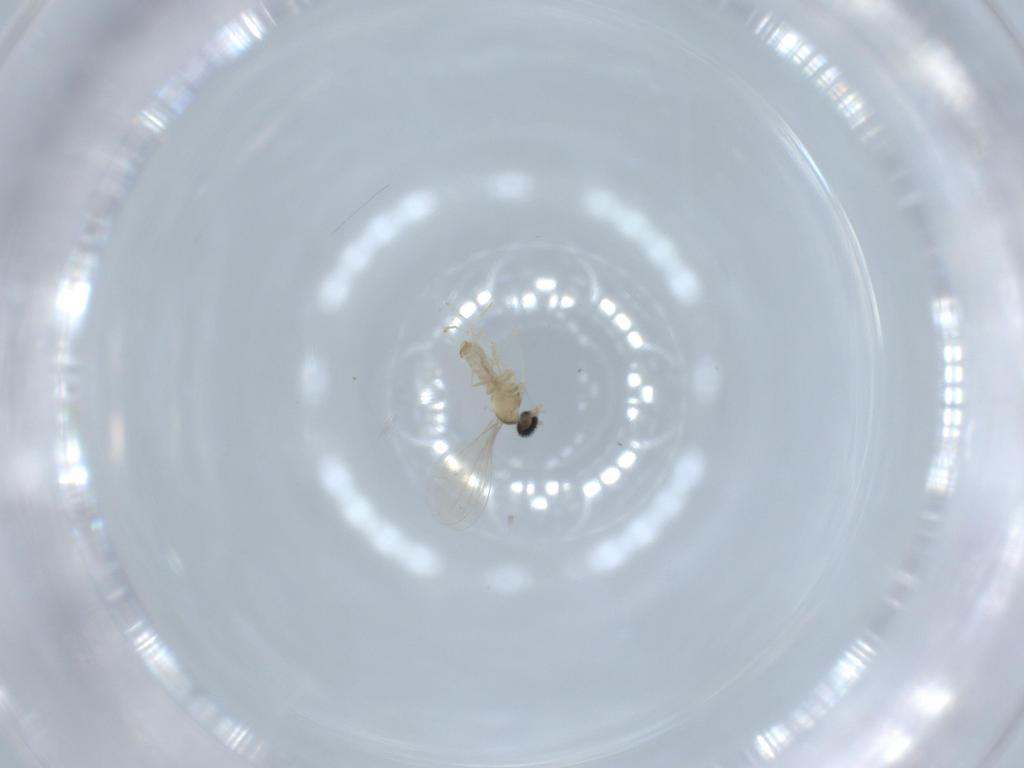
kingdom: Animalia
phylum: Arthropoda
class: Insecta
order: Diptera
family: Cecidomyiidae
